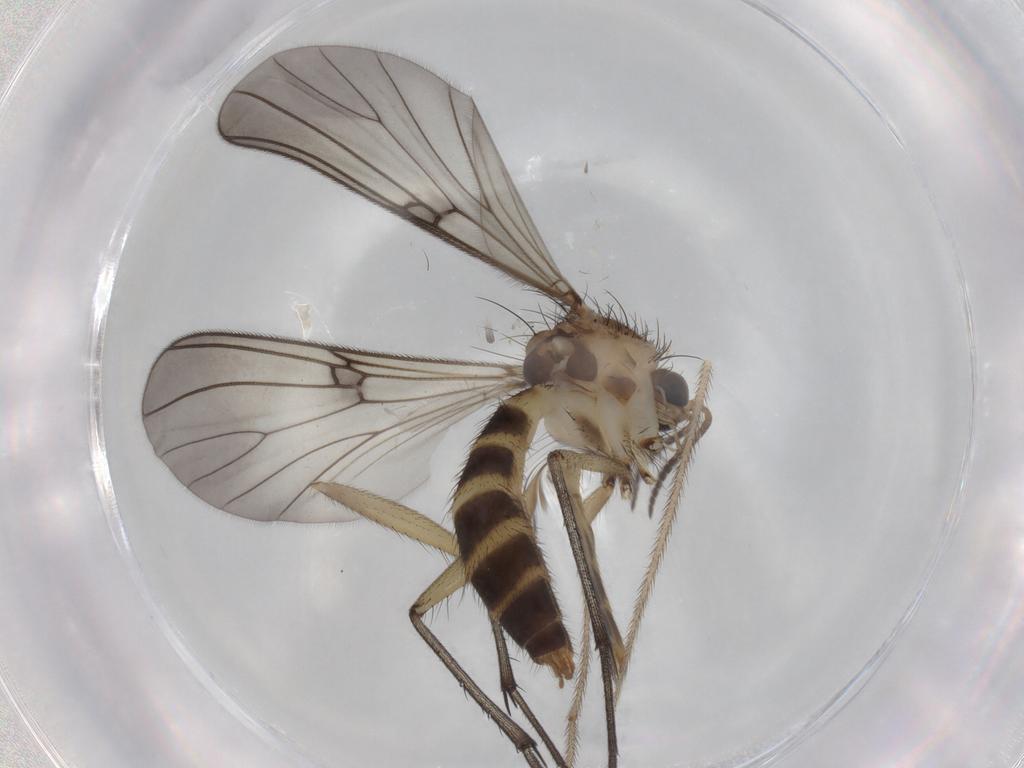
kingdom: Animalia
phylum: Arthropoda
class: Insecta
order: Diptera
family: Mycetophilidae
